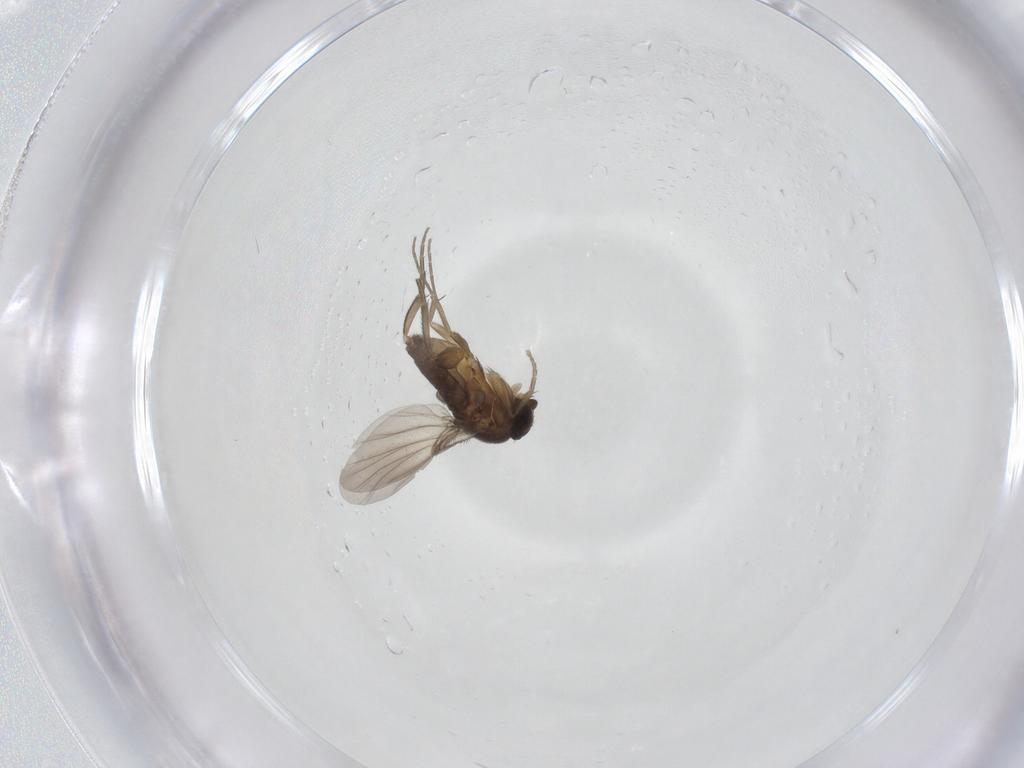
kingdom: Animalia
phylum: Arthropoda
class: Insecta
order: Diptera
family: Phoridae
